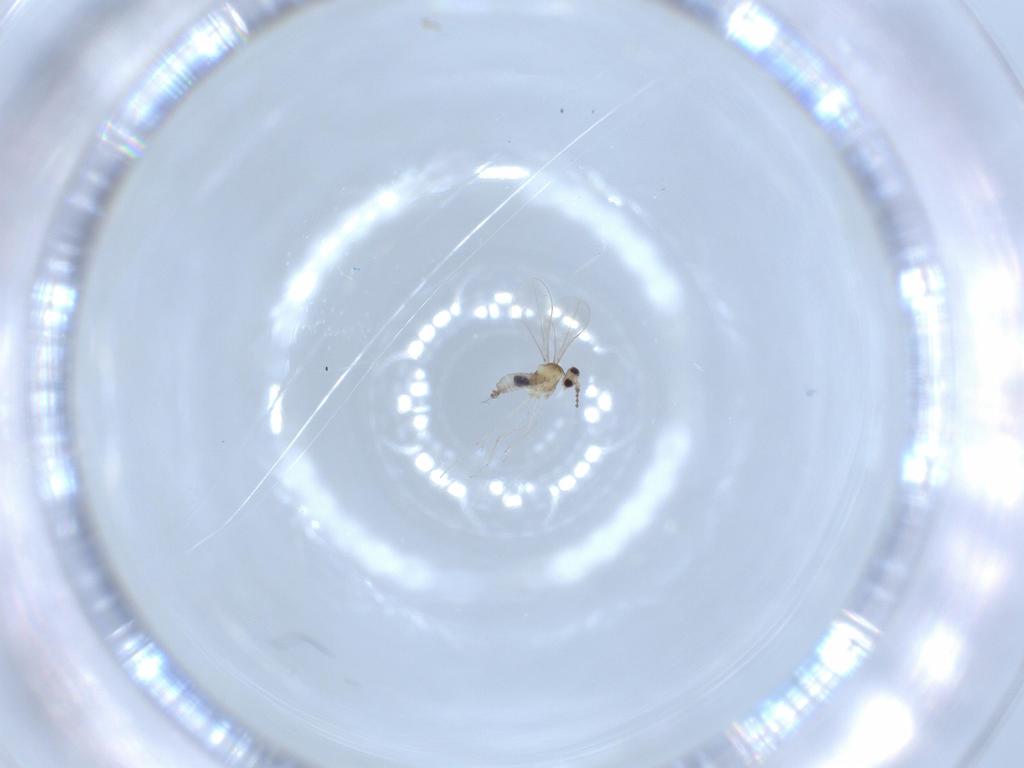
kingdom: Animalia
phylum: Arthropoda
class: Insecta
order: Diptera
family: Cecidomyiidae
